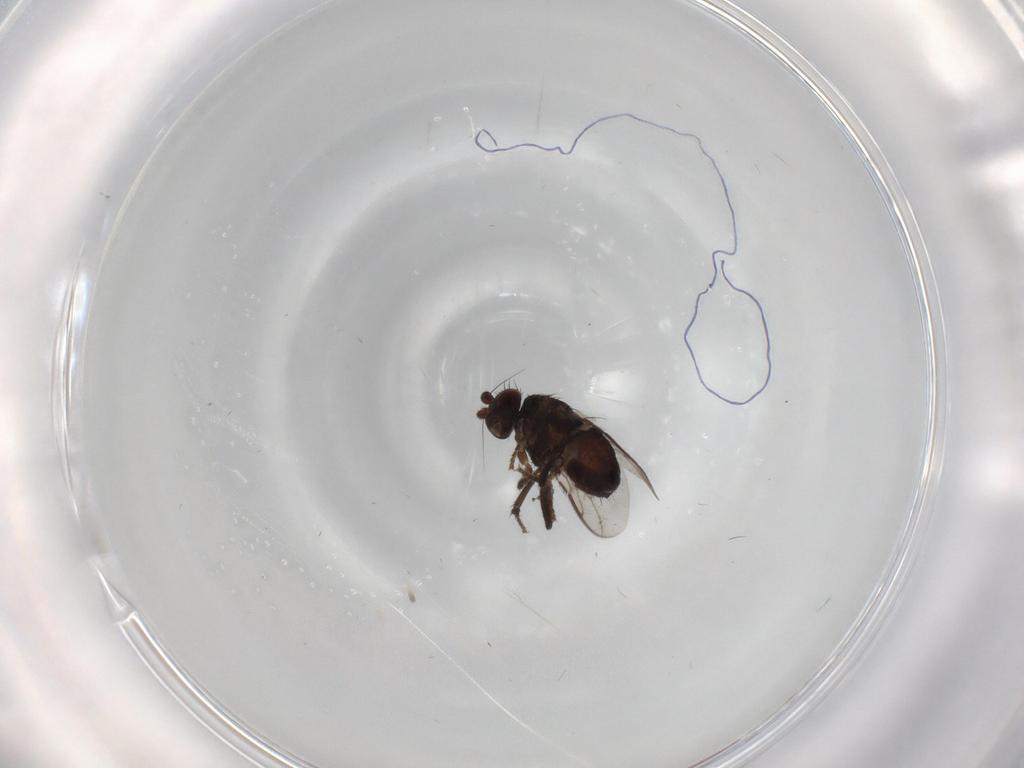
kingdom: Animalia
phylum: Arthropoda
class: Insecta
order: Diptera
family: Sphaeroceridae
